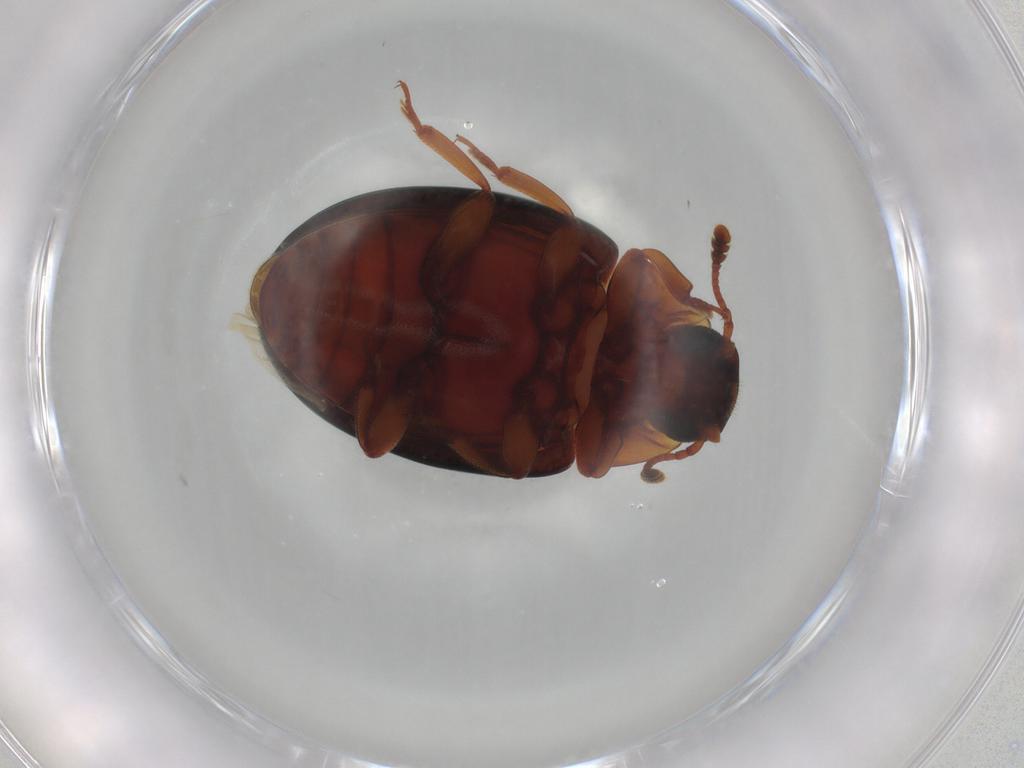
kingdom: Animalia
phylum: Arthropoda
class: Insecta
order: Coleoptera
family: Zopheridae
